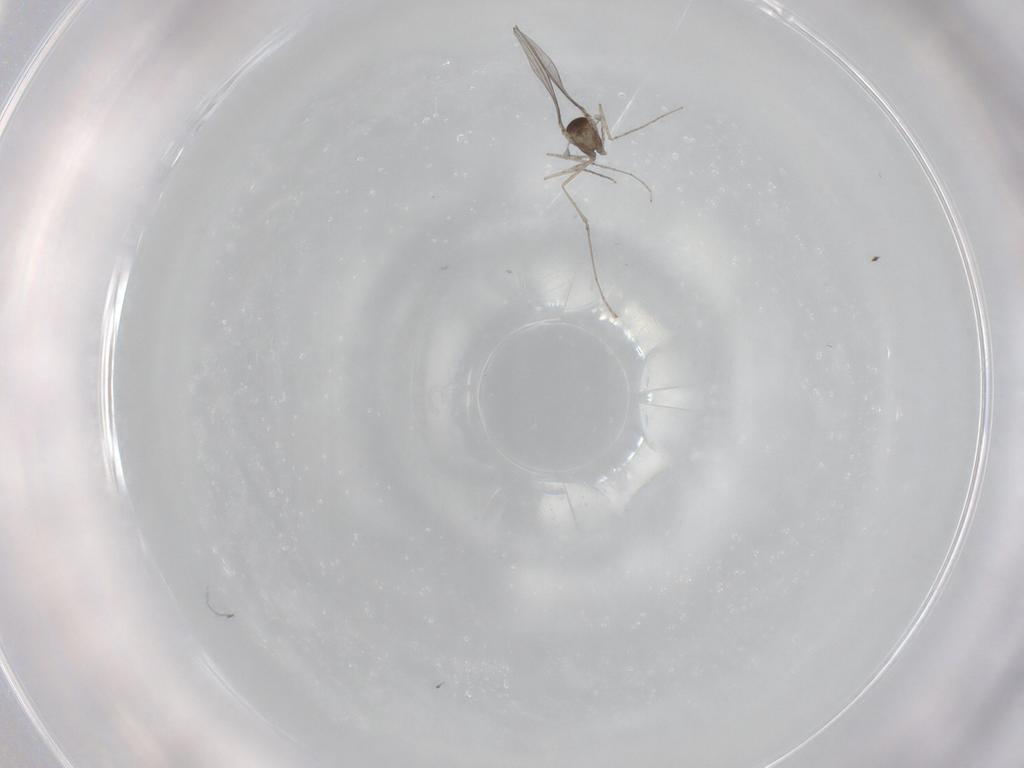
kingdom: Animalia
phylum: Arthropoda
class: Insecta
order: Diptera
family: Cecidomyiidae
